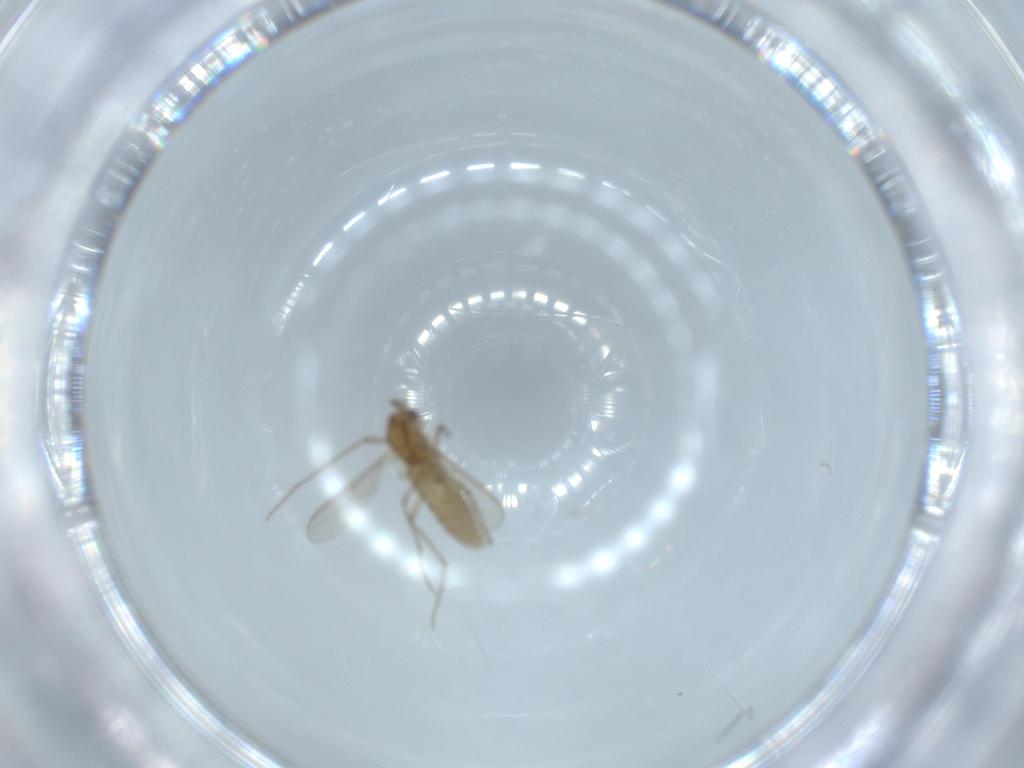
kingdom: Animalia
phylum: Arthropoda
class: Insecta
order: Diptera
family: Chironomidae
